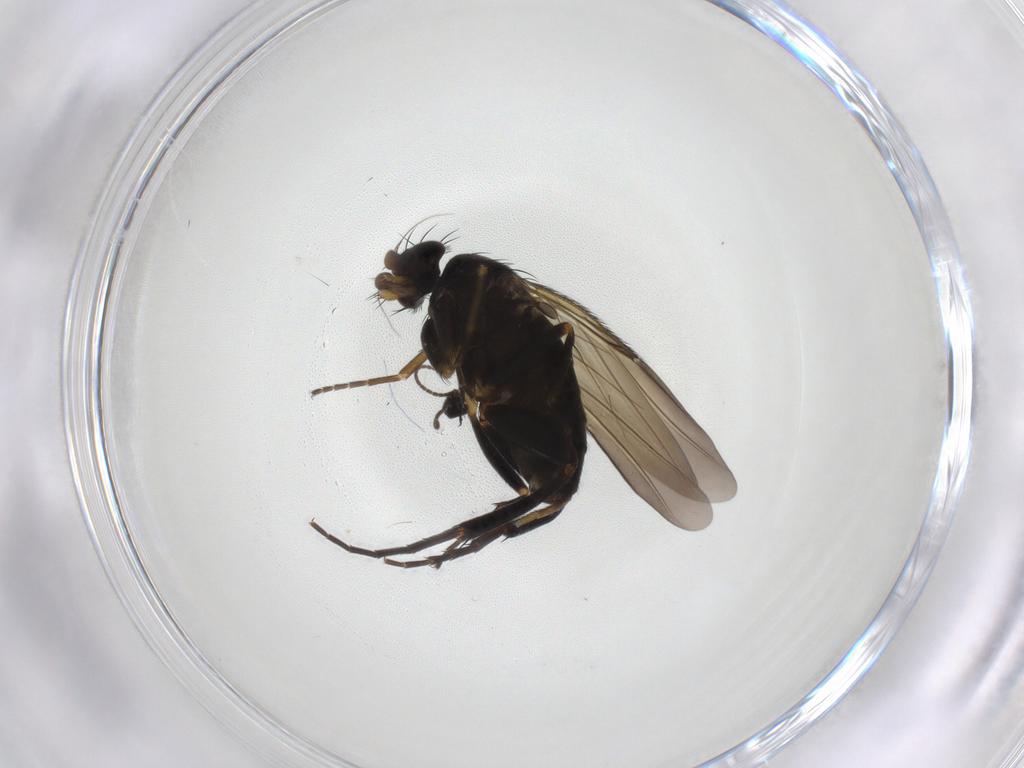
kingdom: Animalia
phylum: Arthropoda
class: Insecta
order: Diptera
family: Phoridae
